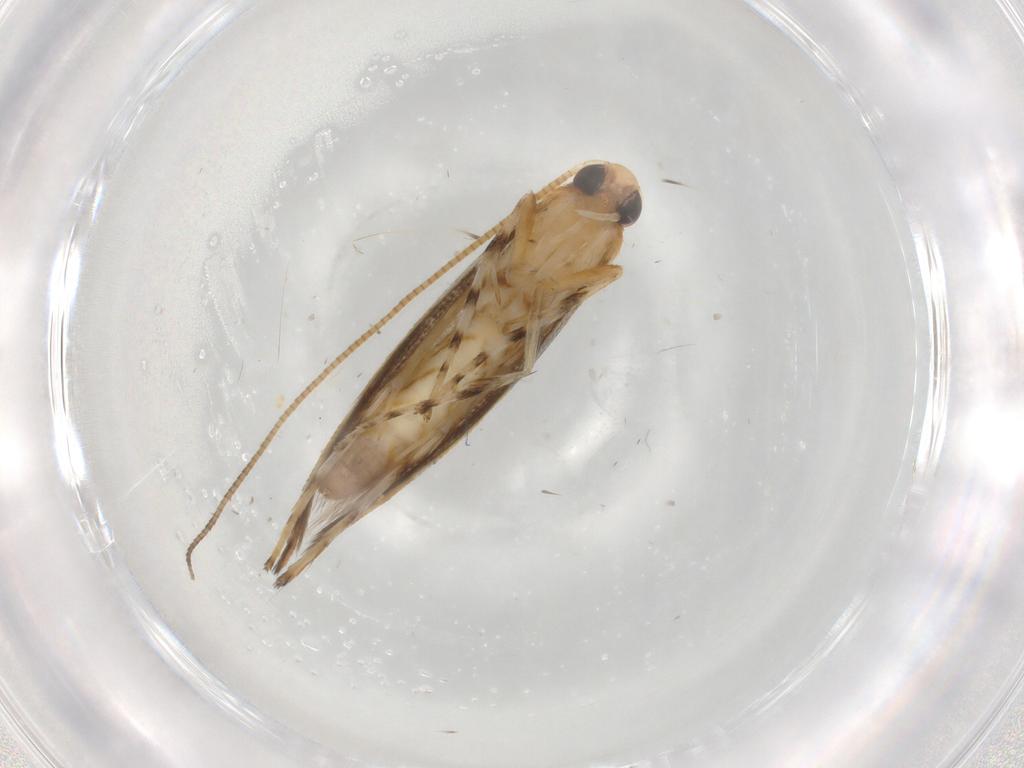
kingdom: Animalia
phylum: Arthropoda
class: Insecta
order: Lepidoptera
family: Nepticulidae
